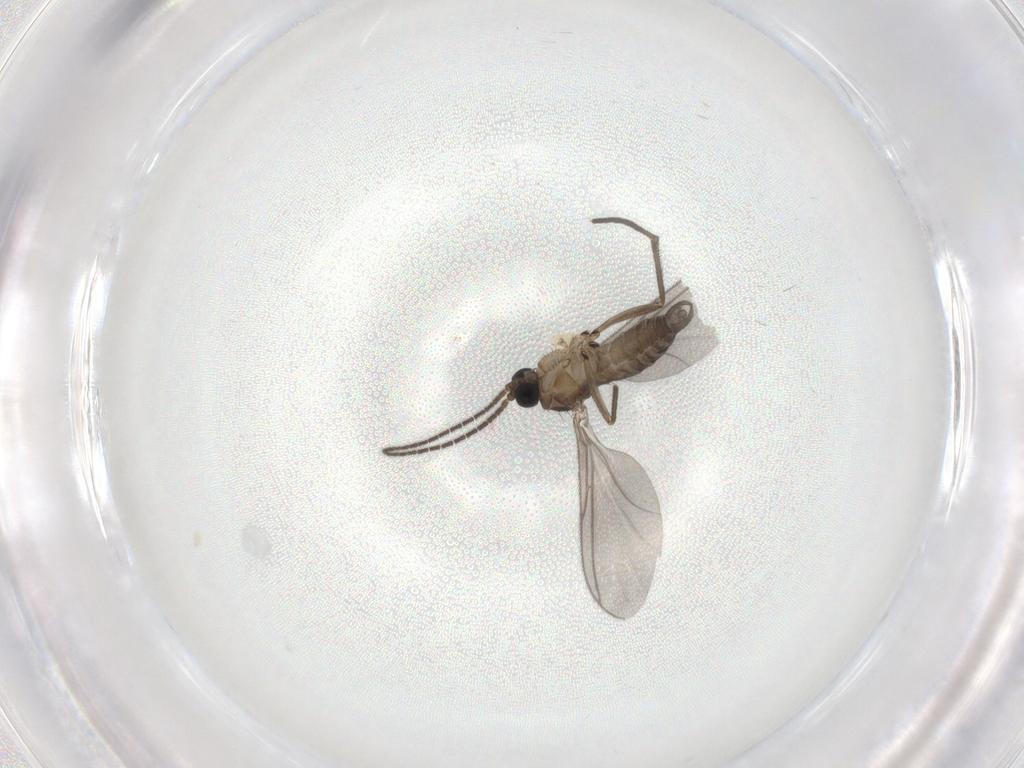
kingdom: Animalia
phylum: Arthropoda
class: Insecta
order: Diptera
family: Sciaridae
